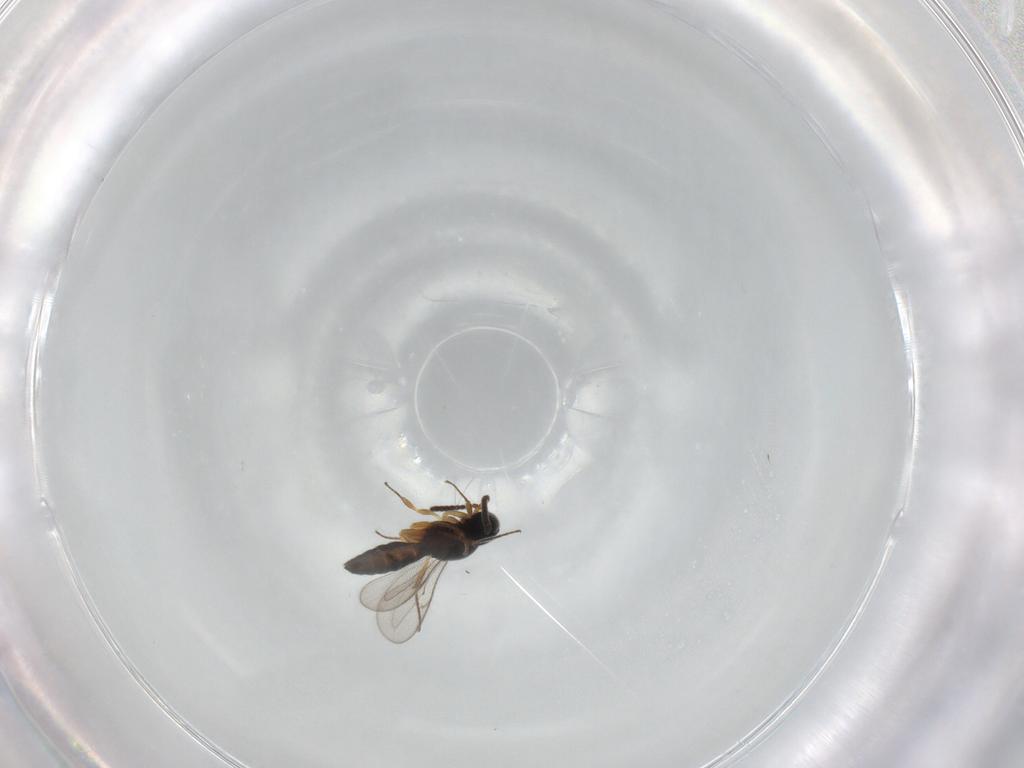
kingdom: Animalia
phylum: Arthropoda
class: Insecta
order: Hymenoptera
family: Scelionidae
